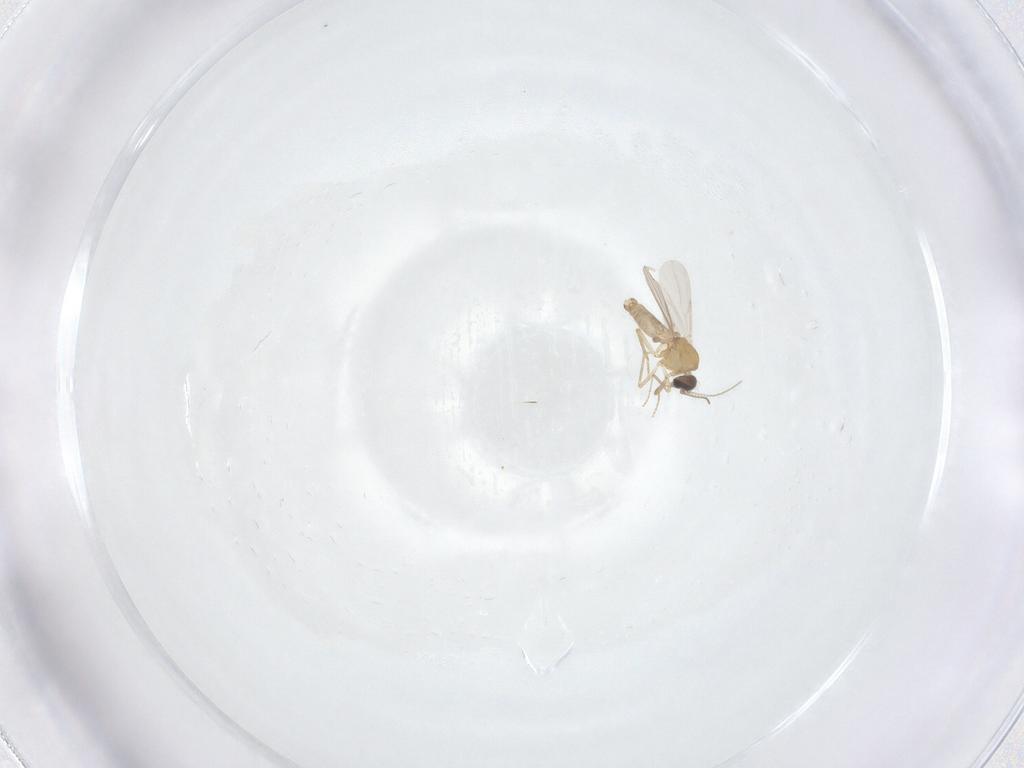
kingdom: Animalia
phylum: Arthropoda
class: Insecta
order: Diptera
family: Ceratopogonidae
